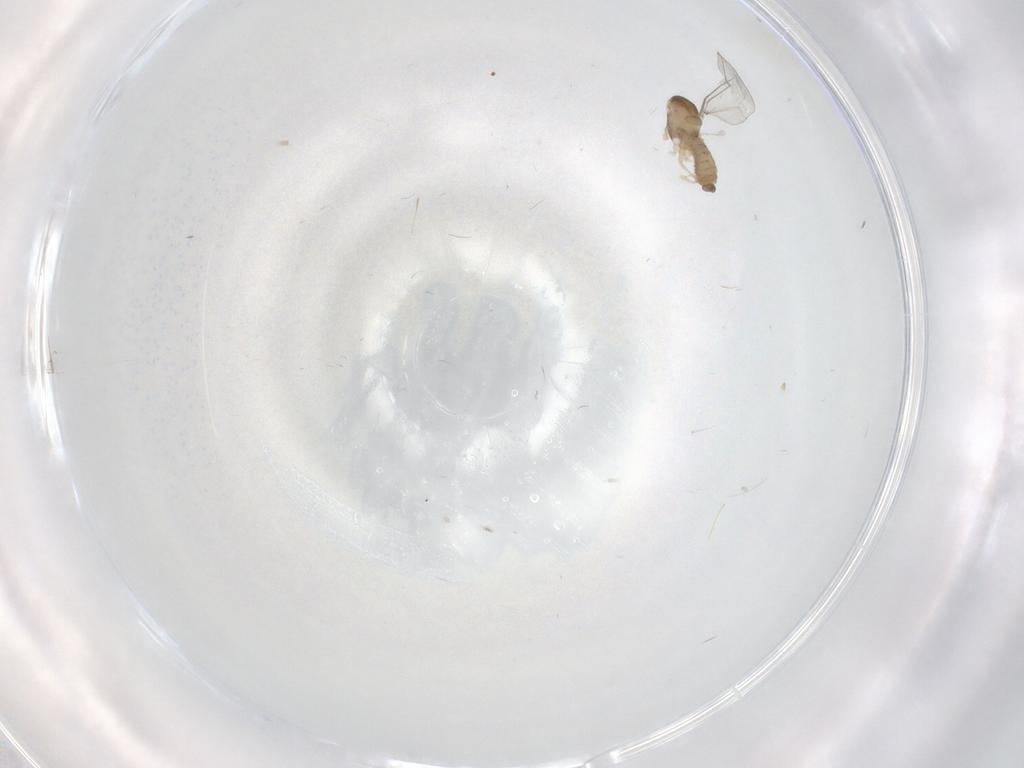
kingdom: Animalia
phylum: Arthropoda
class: Insecta
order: Diptera
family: Cecidomyiidae
